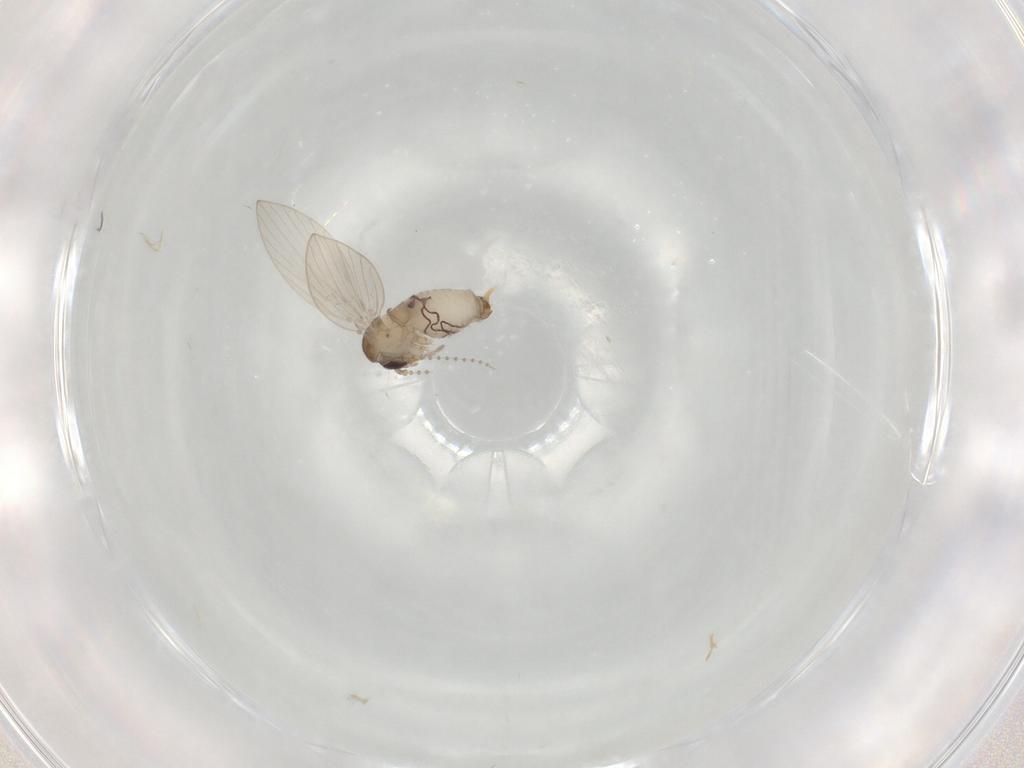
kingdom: Animalia
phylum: Arthropoda
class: Insecta
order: Diptera
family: Psychodidae
